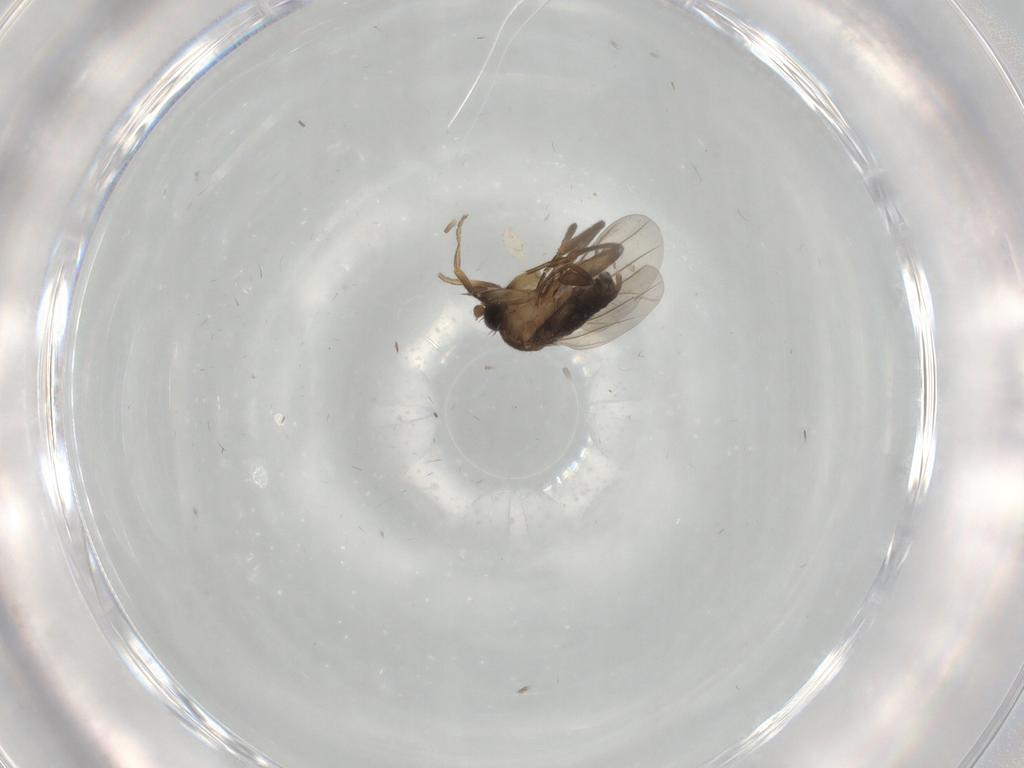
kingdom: Animalia
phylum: Arthropoda
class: Insecta
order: Diptera
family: Phoridae
